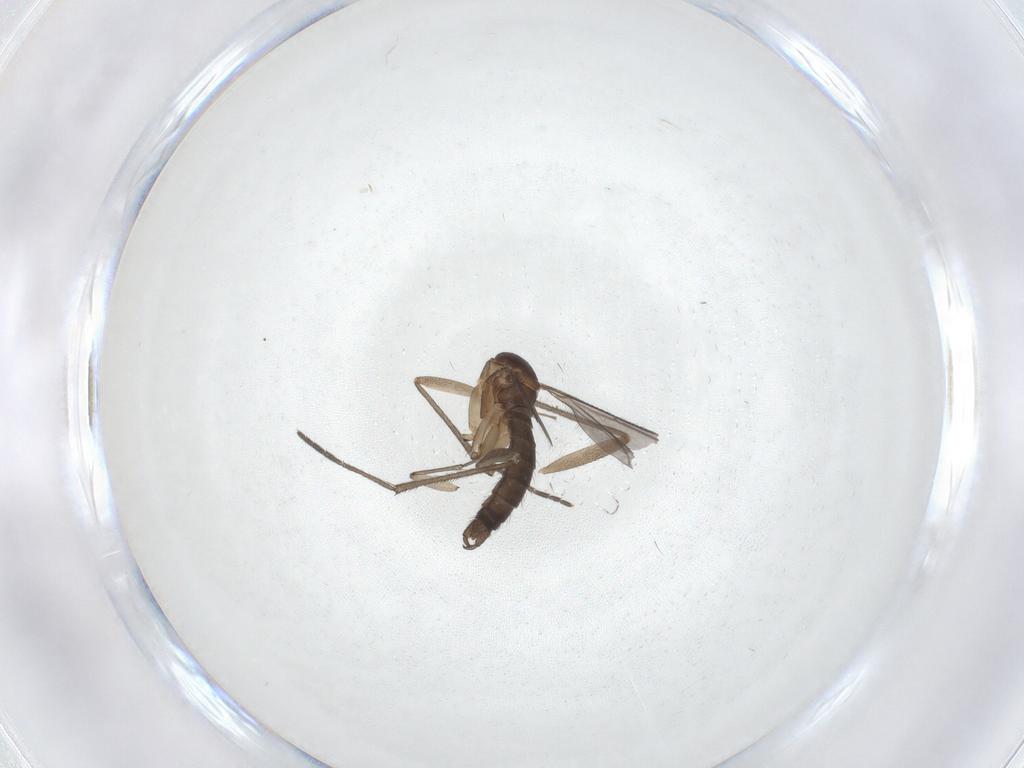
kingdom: Animalia
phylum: Arthropoda
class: Insecta
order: Diptera
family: Sciaridae
